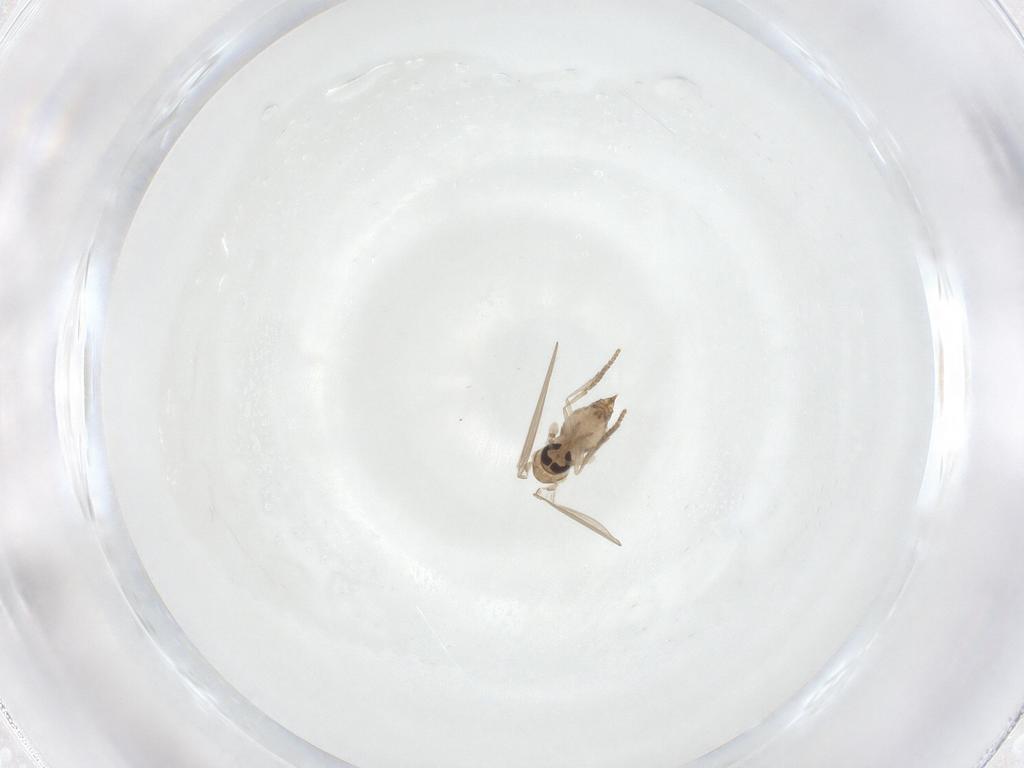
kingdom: Animalia
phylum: Arthropoda
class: Insecta
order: Diptera
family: Psychodidae
